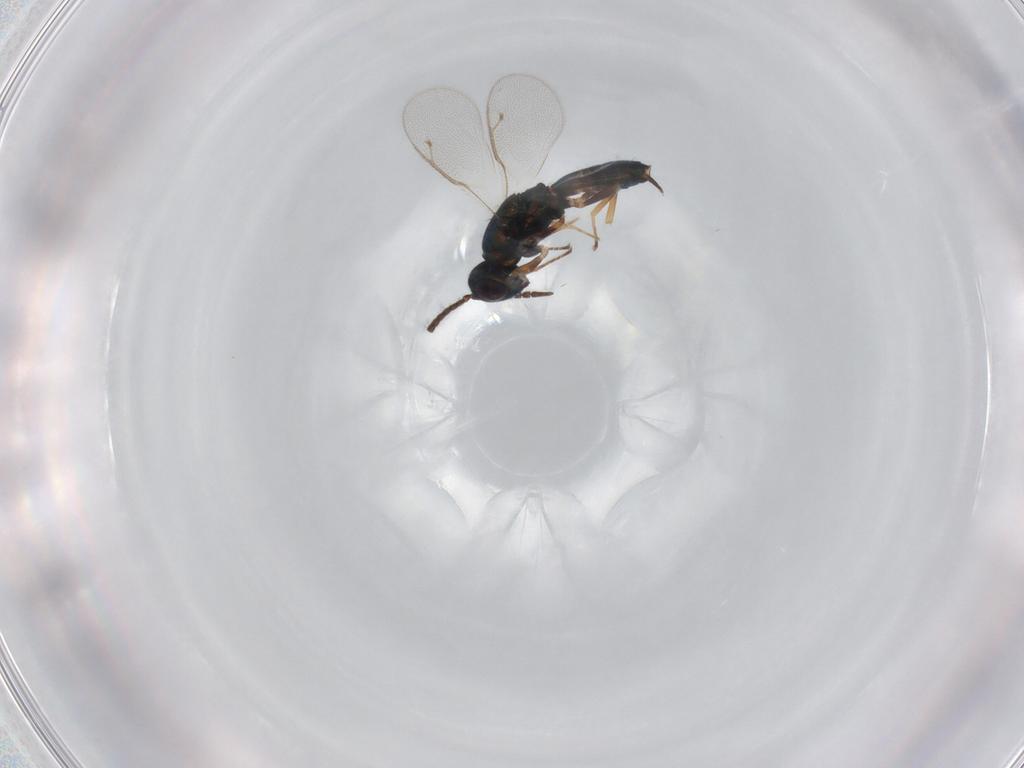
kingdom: Animalia
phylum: Arthropoda
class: Insecta
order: Hymenoptera
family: Pteromalidae
